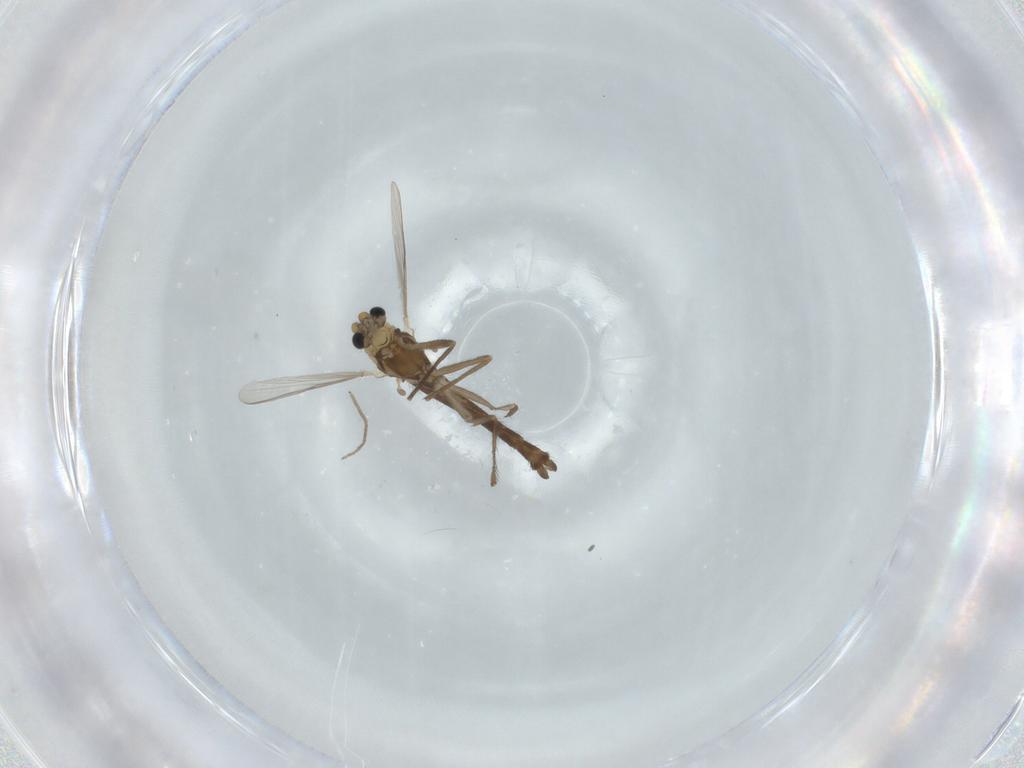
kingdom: Animalia
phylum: Arthropoda
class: Insecta
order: Diptera
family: Chironomidae
